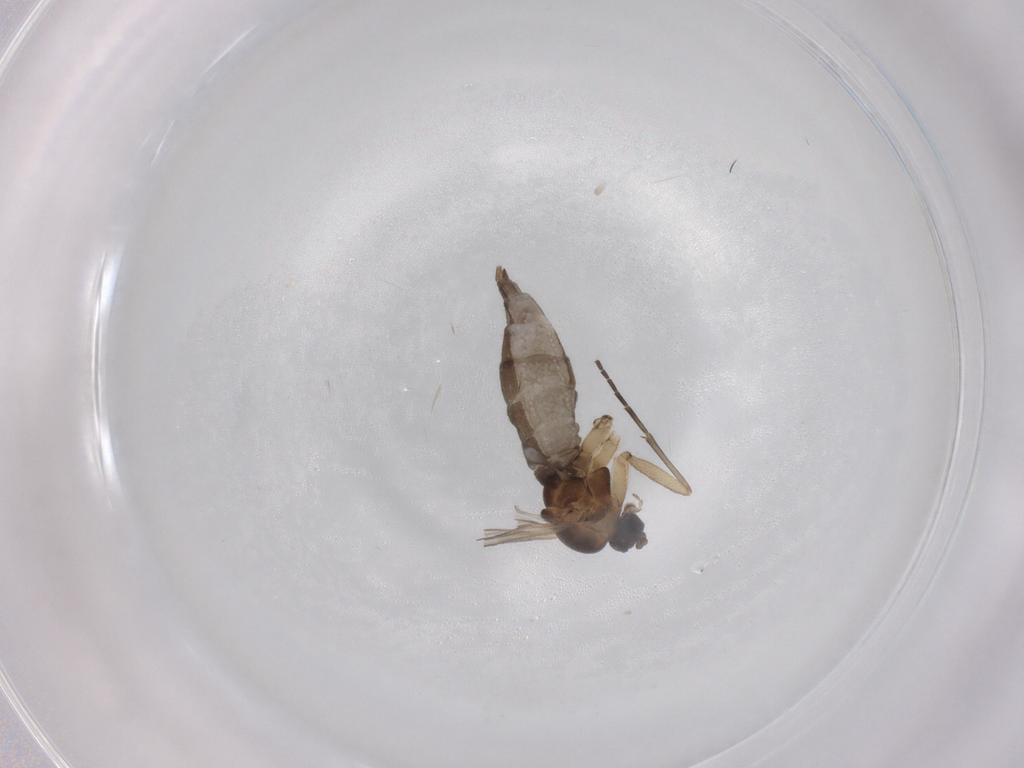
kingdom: Animalia
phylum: Arthropoda
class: Insecta
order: Diptera
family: Sciaridae
